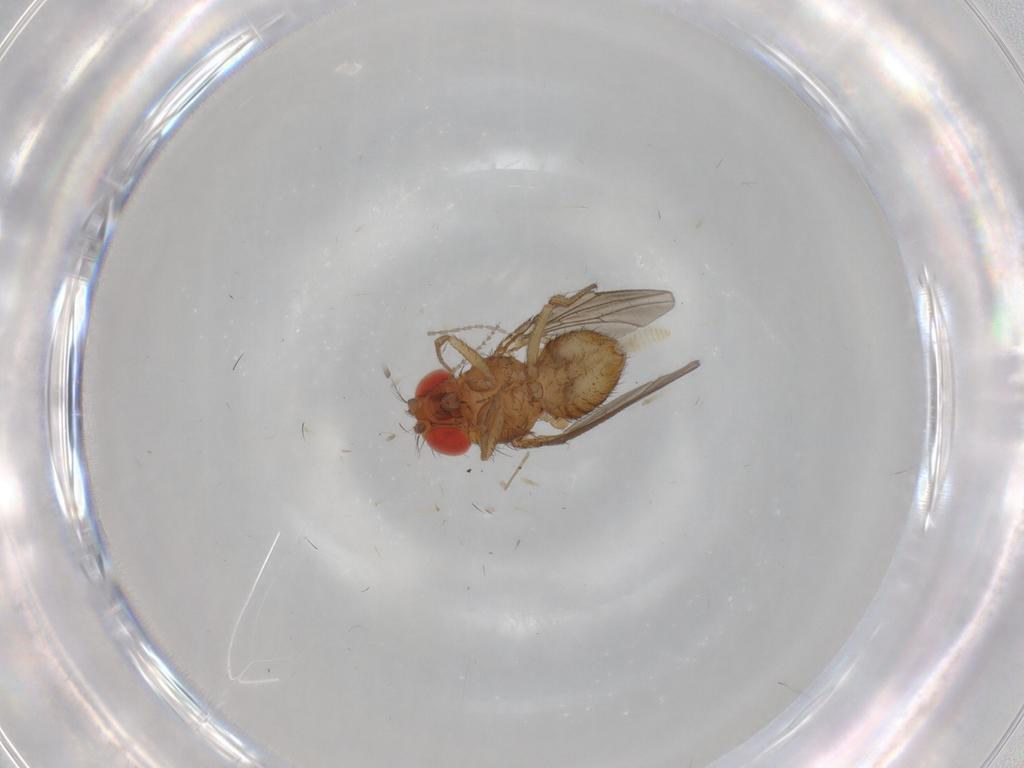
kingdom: Animalia
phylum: Arthropoda
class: Insecta
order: Diptera
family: Drosophilidae
